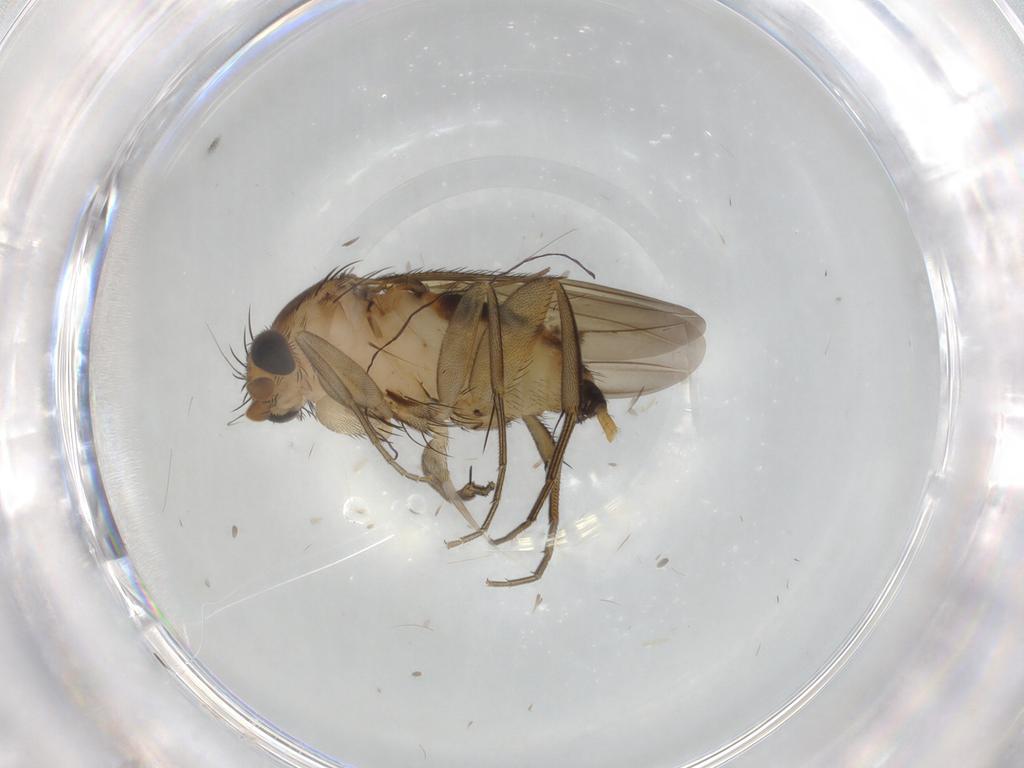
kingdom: Animalia
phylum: Arthropoda
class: Insecta
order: Diptera
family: Cecidomyiidae
